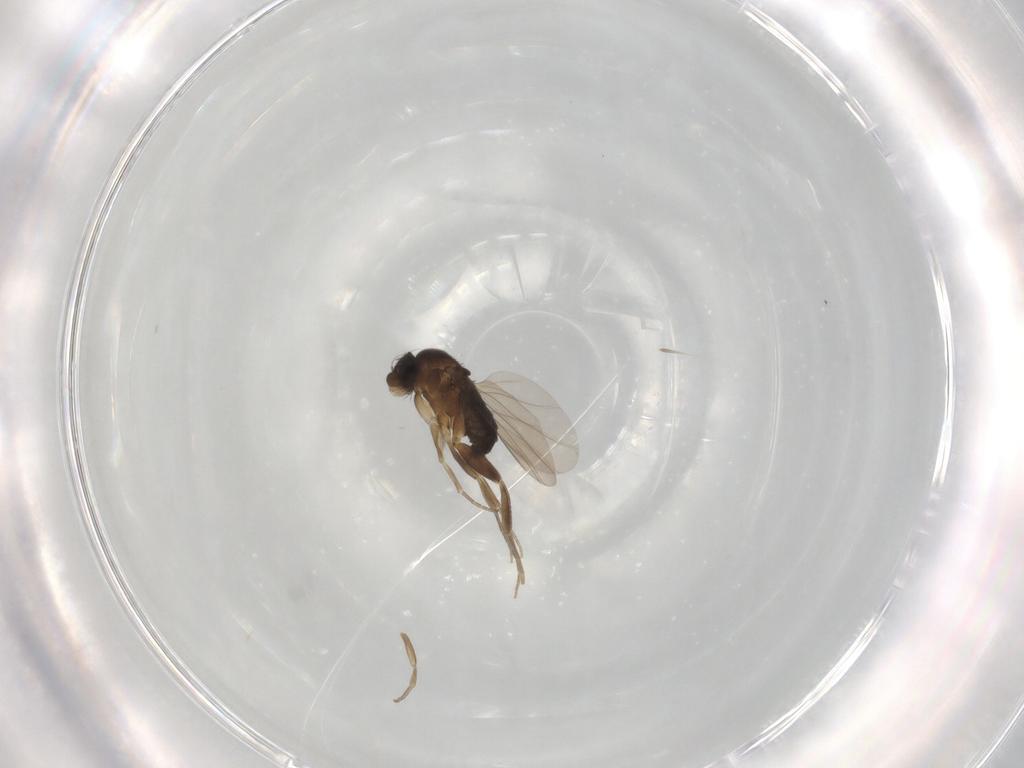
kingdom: Animalia
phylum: Arthropoda
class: Insecta
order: Diptera
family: Phoridae
